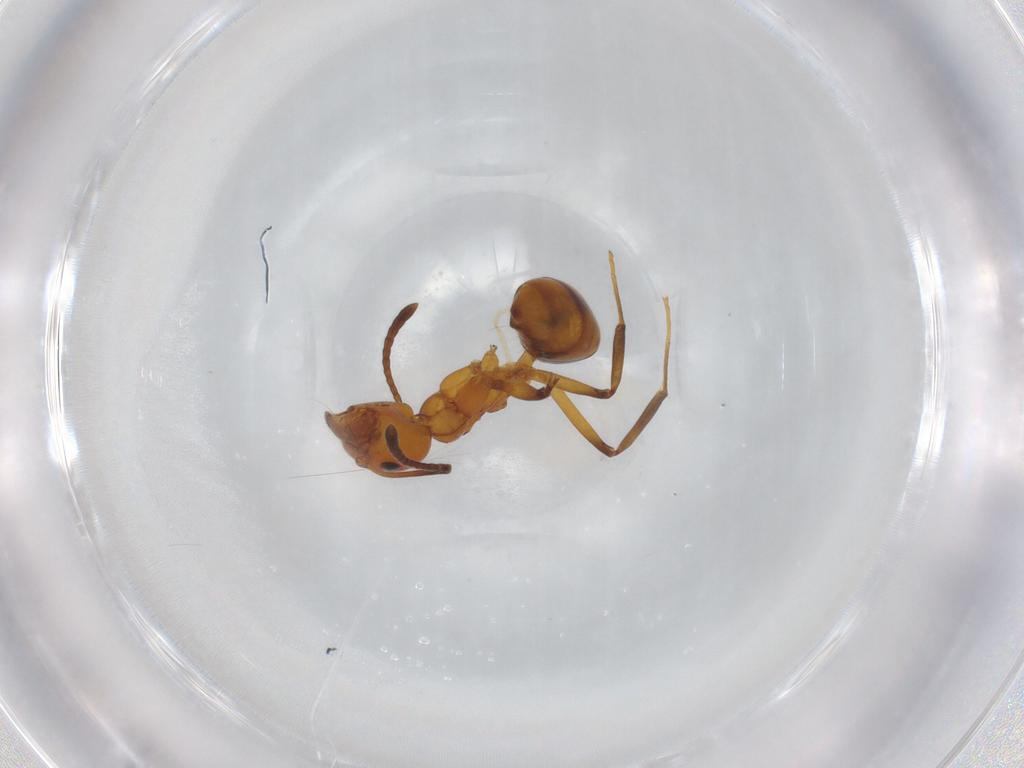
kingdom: Animalia
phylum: Arthropoda
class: Insecta
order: Hymenoptera
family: Formicidae
